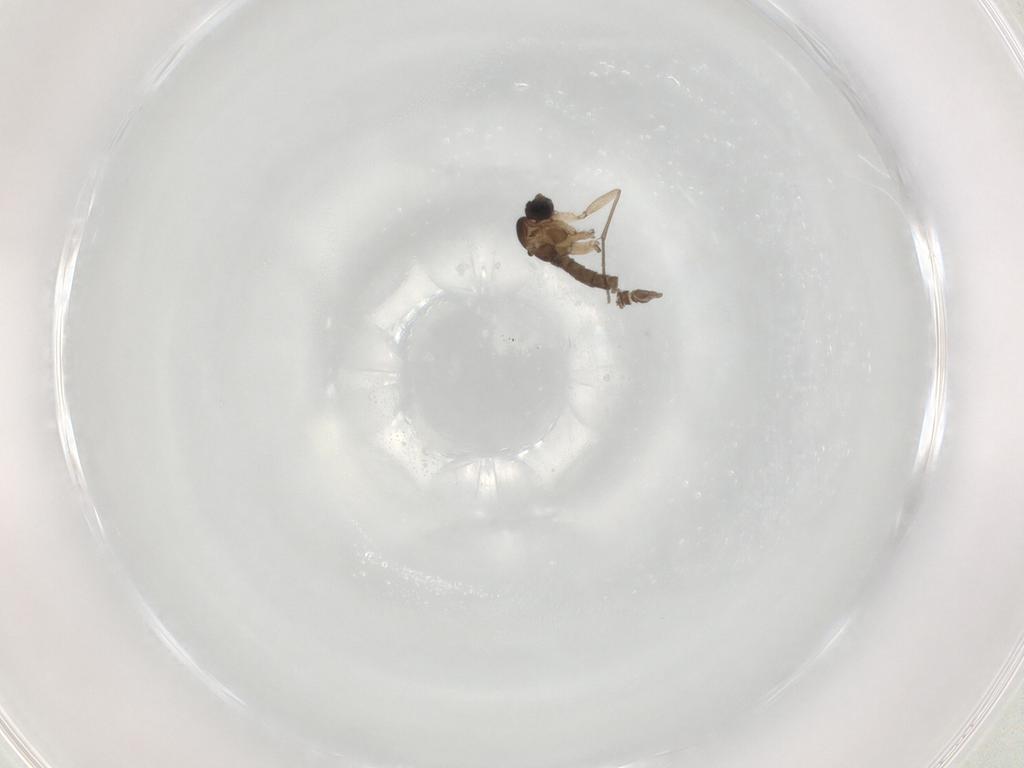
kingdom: Animalia
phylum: Arthropoda
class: Insecta
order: Diptera
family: Sciaridae
